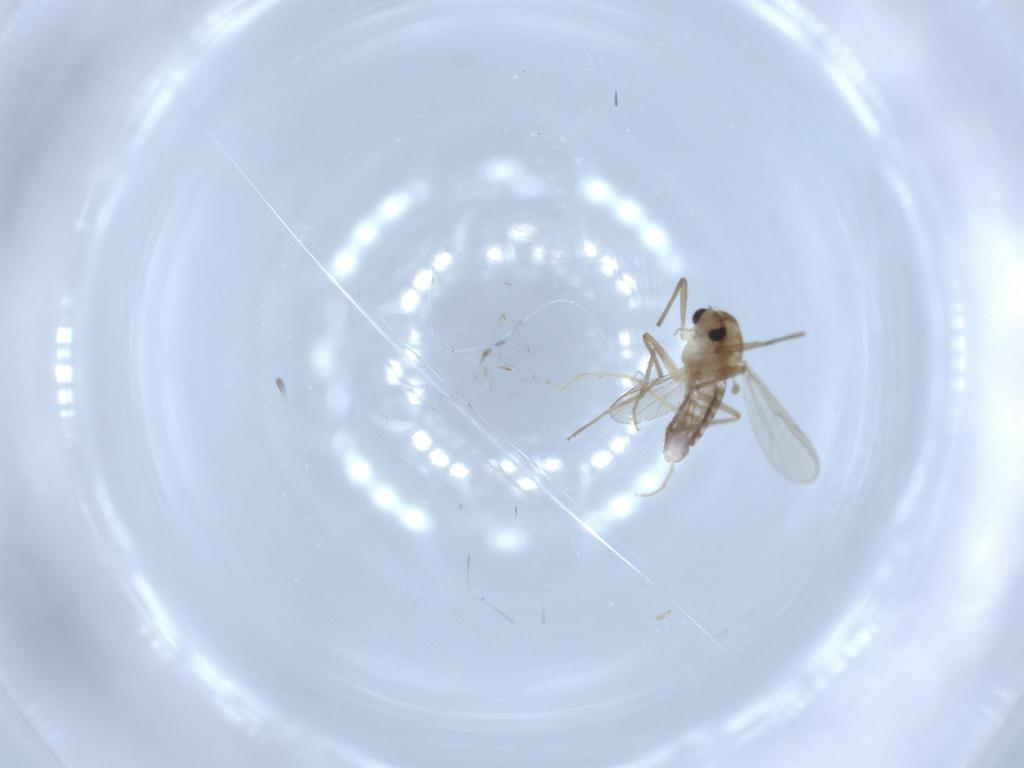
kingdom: Animalia
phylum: Arthropoda
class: Insecta
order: Diptera
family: Chironomidae
